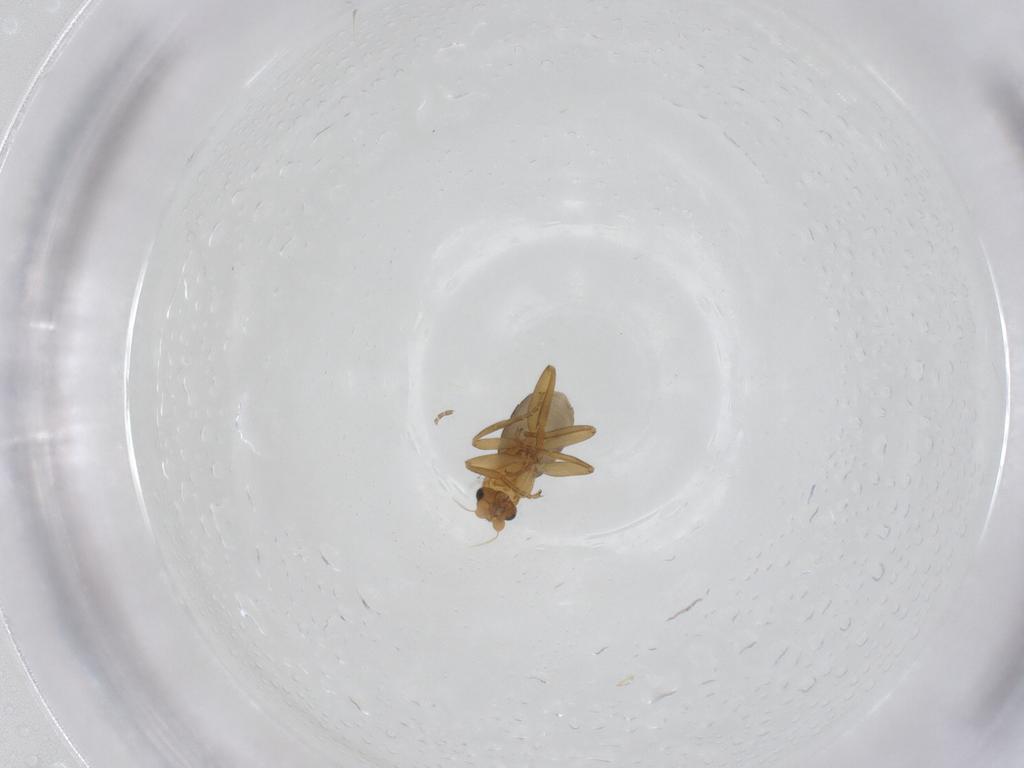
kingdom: Animalia
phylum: Arthropoda
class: Insecta
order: Diptera
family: Phoridae
